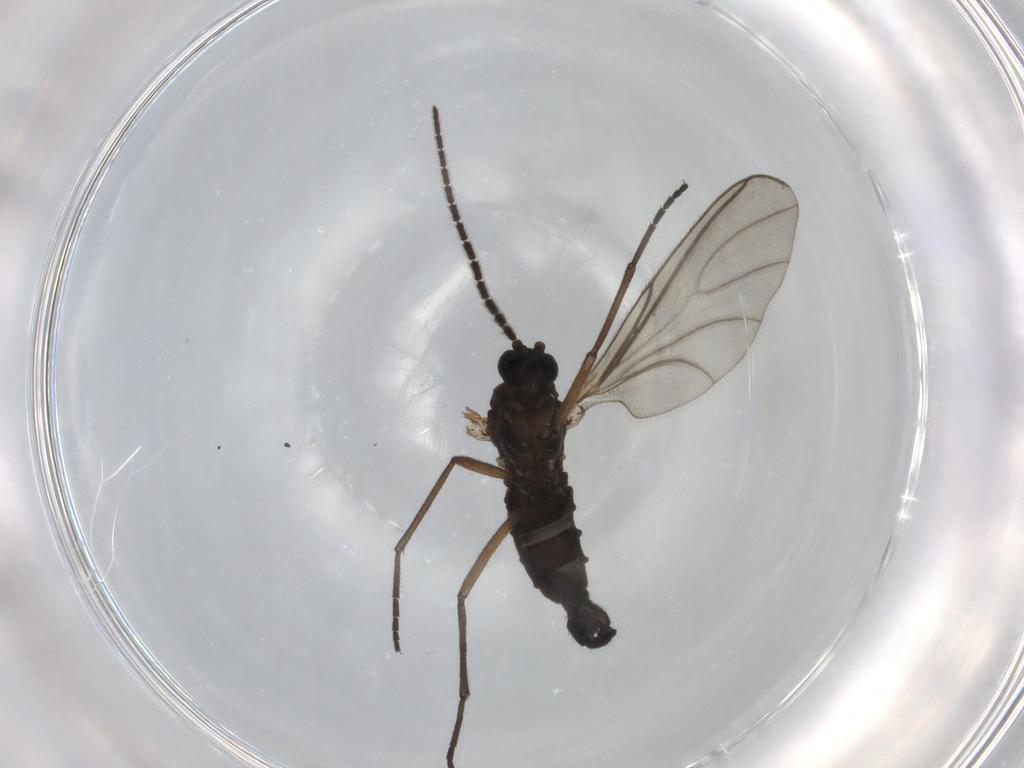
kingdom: Animalia
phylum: Arthropoda
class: Insecta
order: Diptera
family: Sciaridae
